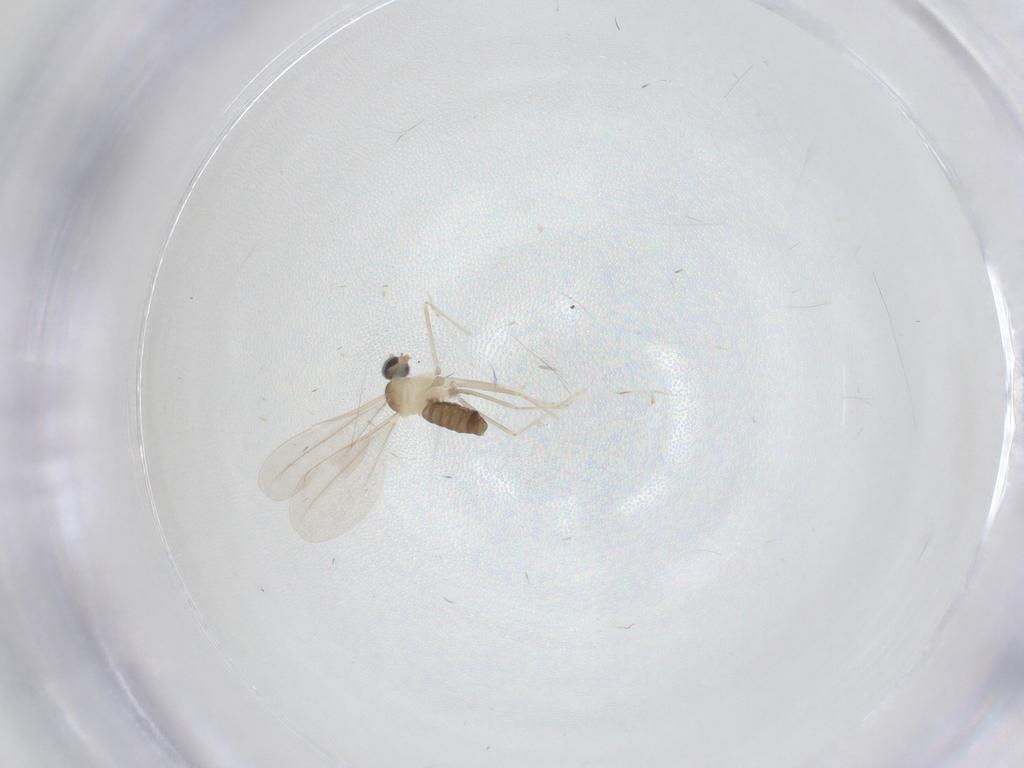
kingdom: Animalia
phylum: Arthropoda
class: Insecta
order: Diptera
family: Cecidomyiidae
